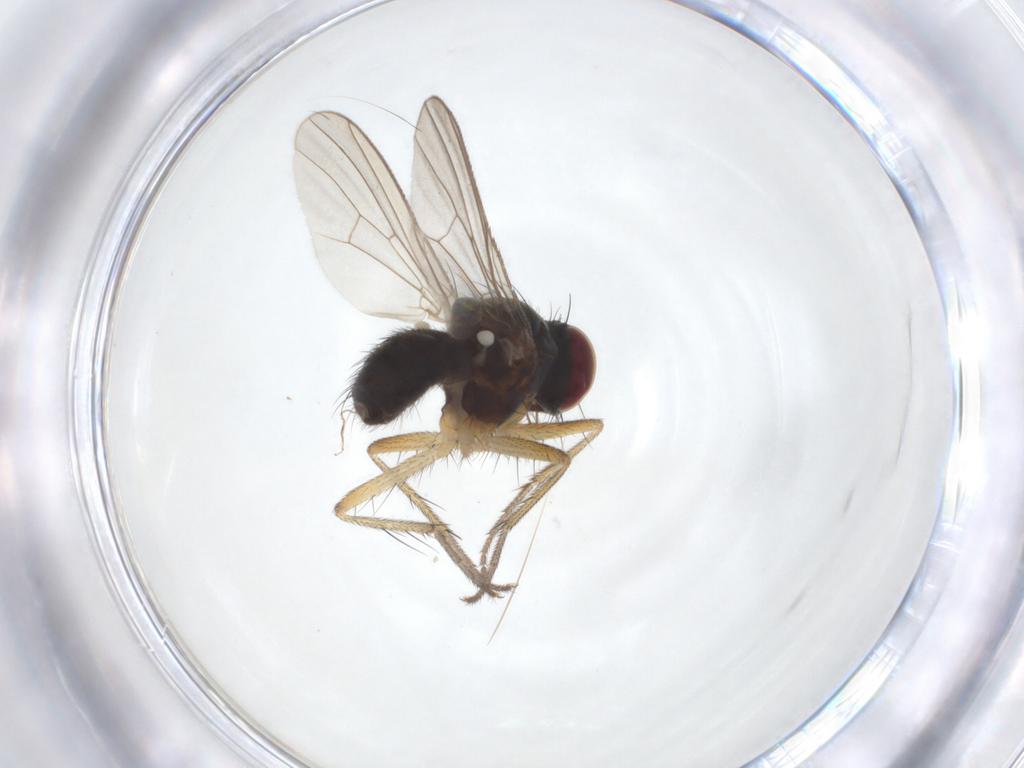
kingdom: Animalia
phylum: Arthropoda
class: Insecta
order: Diptera
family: Muscidae
